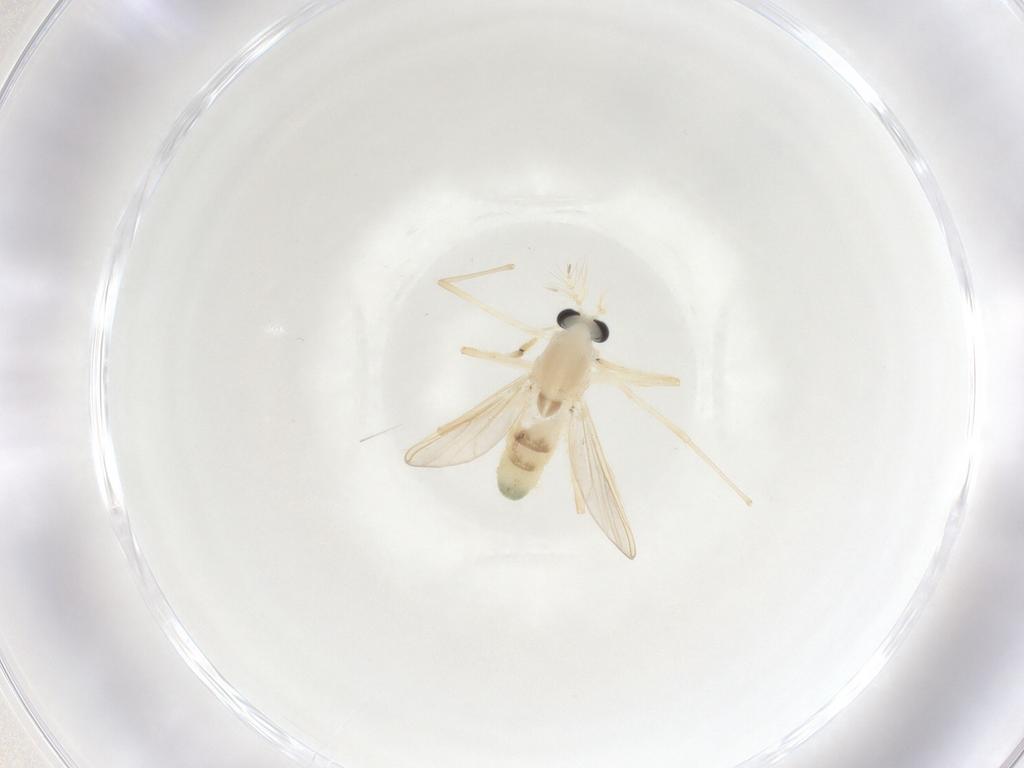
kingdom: Animalia
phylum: Arthropoda
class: Insecta
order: Diptera
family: Chironomidae
